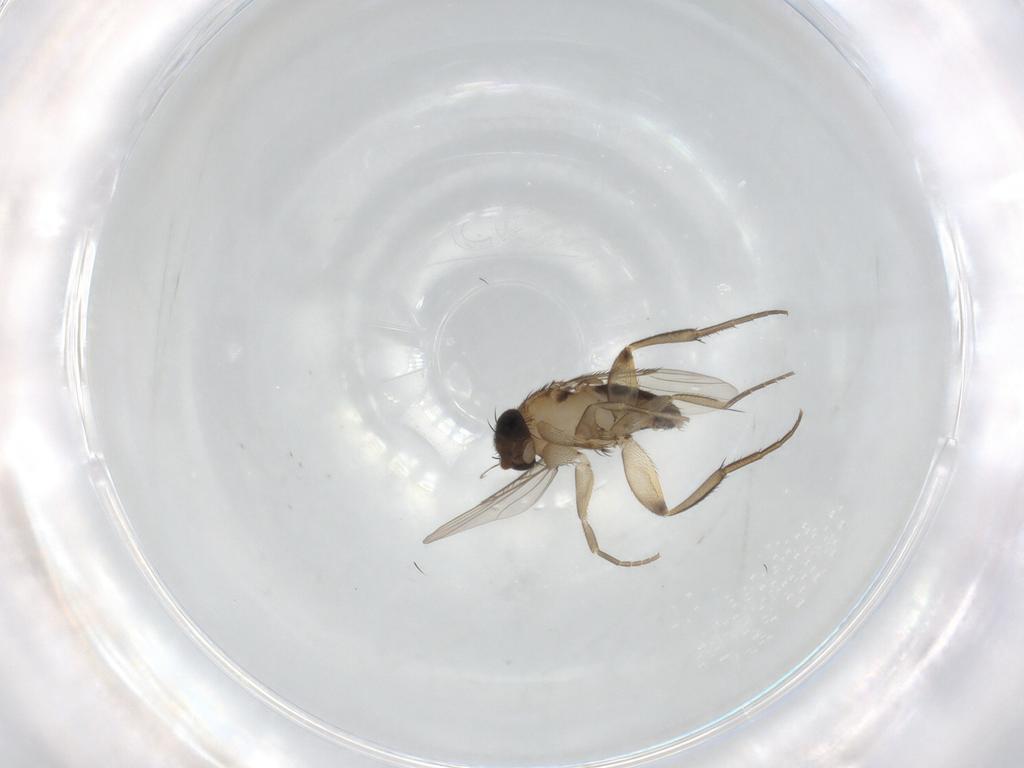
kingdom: Animalia
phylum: Arthropoda
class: Insecta
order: Diptera
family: Phoridae
